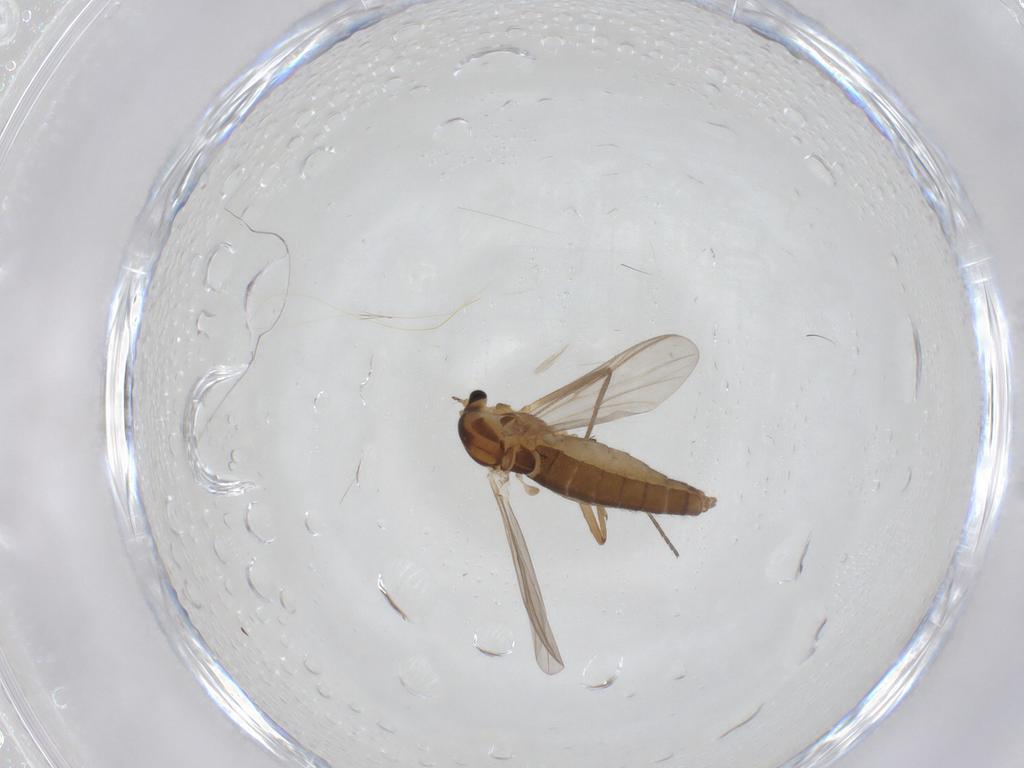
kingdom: Animalia
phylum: Arthropoda
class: Insecta
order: Diptera
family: Chironomidae
